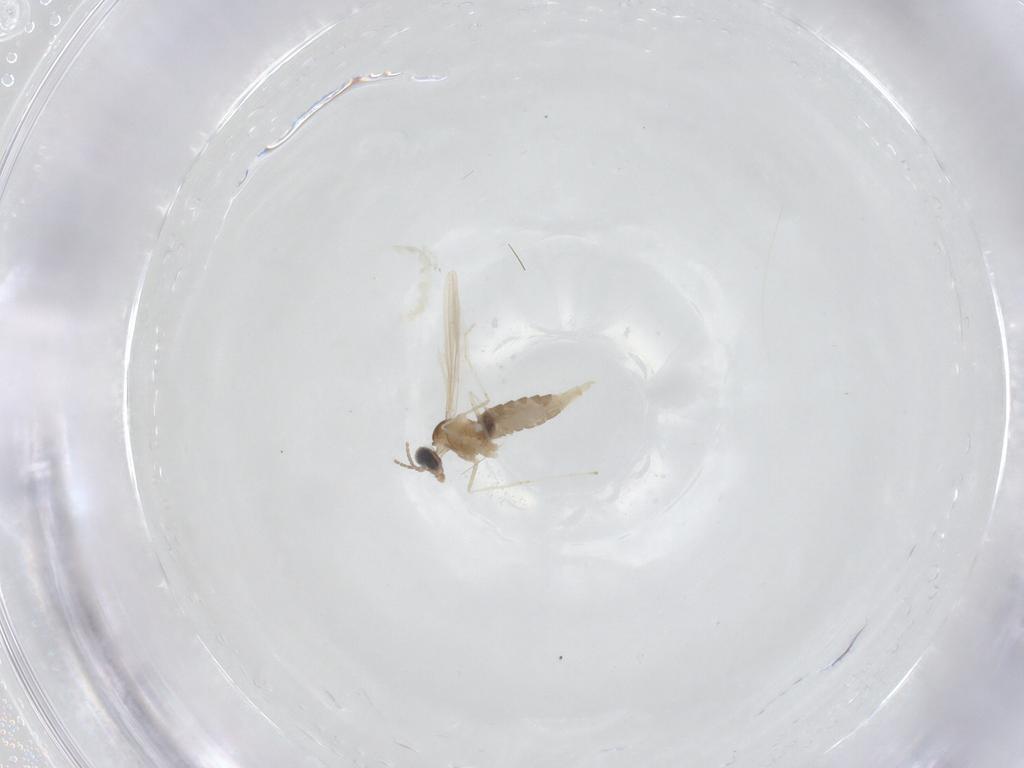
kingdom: Animalia
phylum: Arthropoda
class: Insecta
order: Diptera
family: Cecidomyiidae
